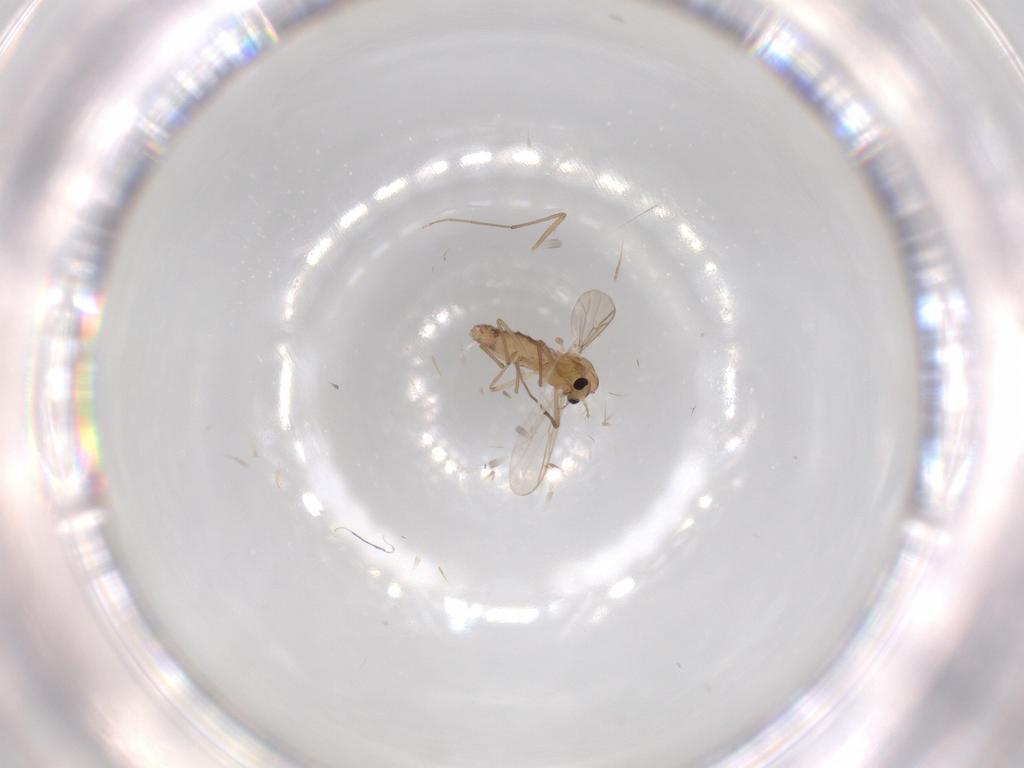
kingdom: Animalia
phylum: Arthropoda
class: Insecta
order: Diptera
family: Chironomidae
